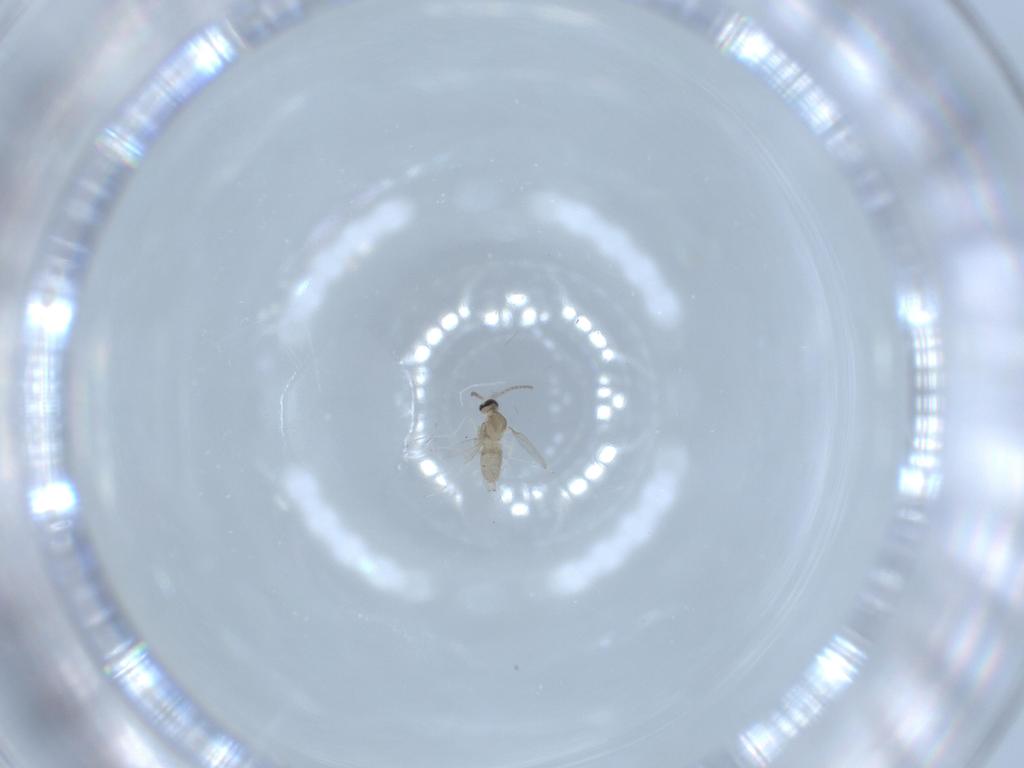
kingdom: Animalia
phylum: Arthropoda
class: Insecta
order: Diptera
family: Cecidomyiidae
